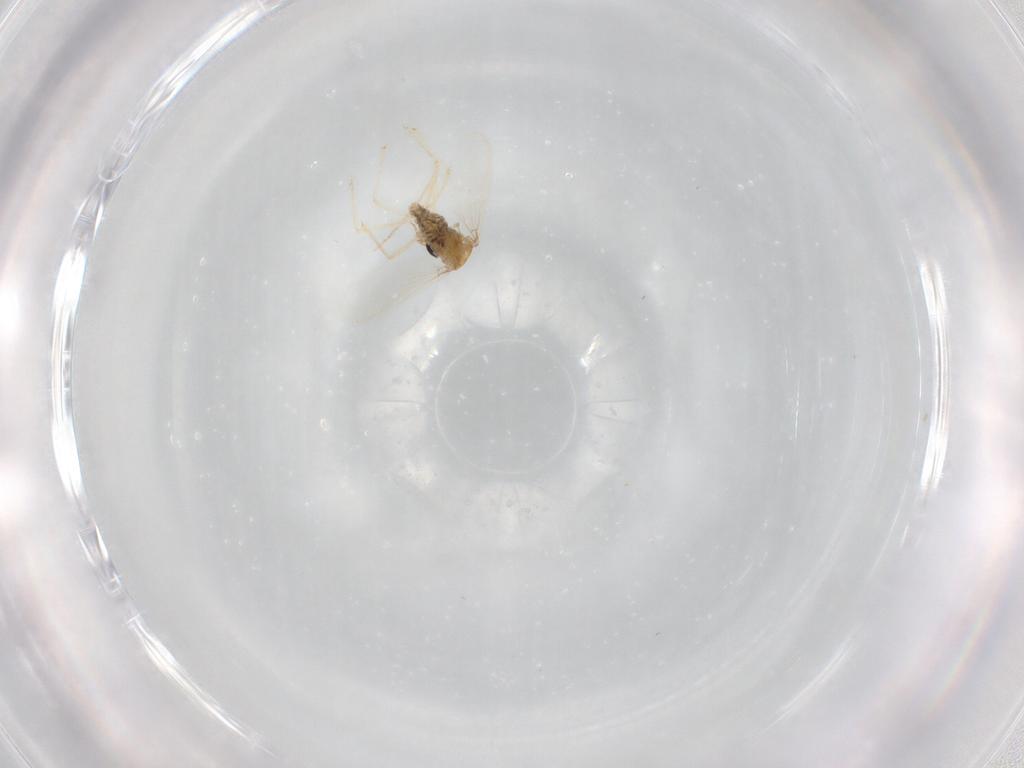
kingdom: Animalia
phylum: Arthropoda
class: Insecta
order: Diptera
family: Chironomidae
